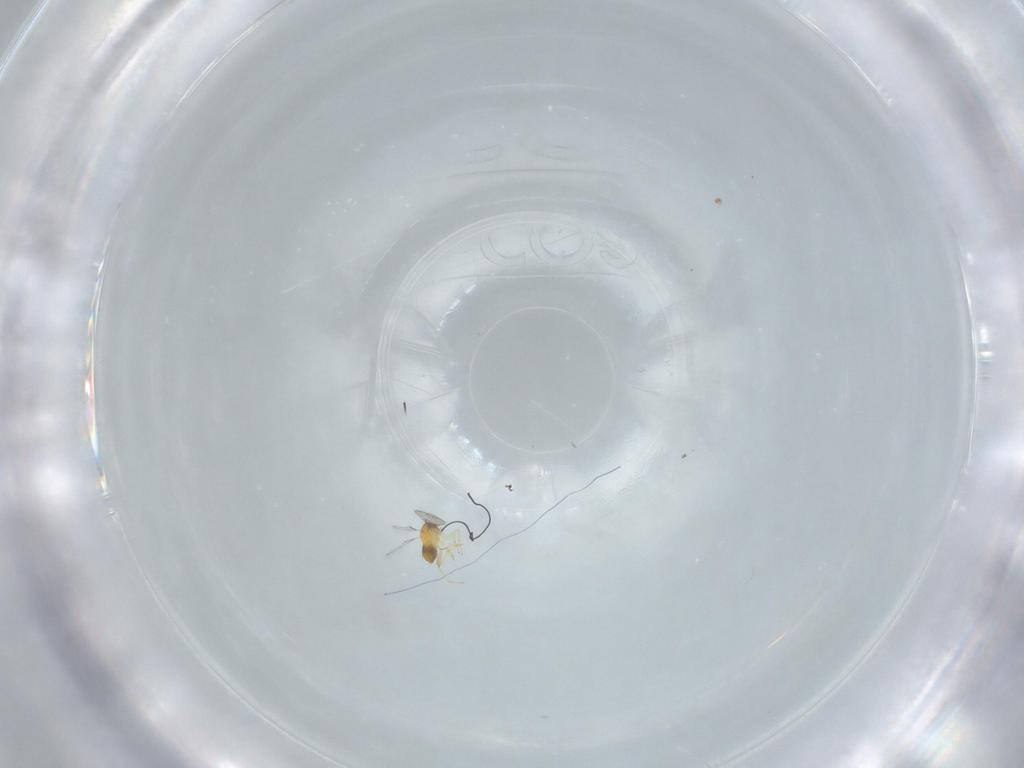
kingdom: Animalia
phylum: Arthropoda
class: Insecta
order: Hymenoptera
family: Trichogrammatidae
